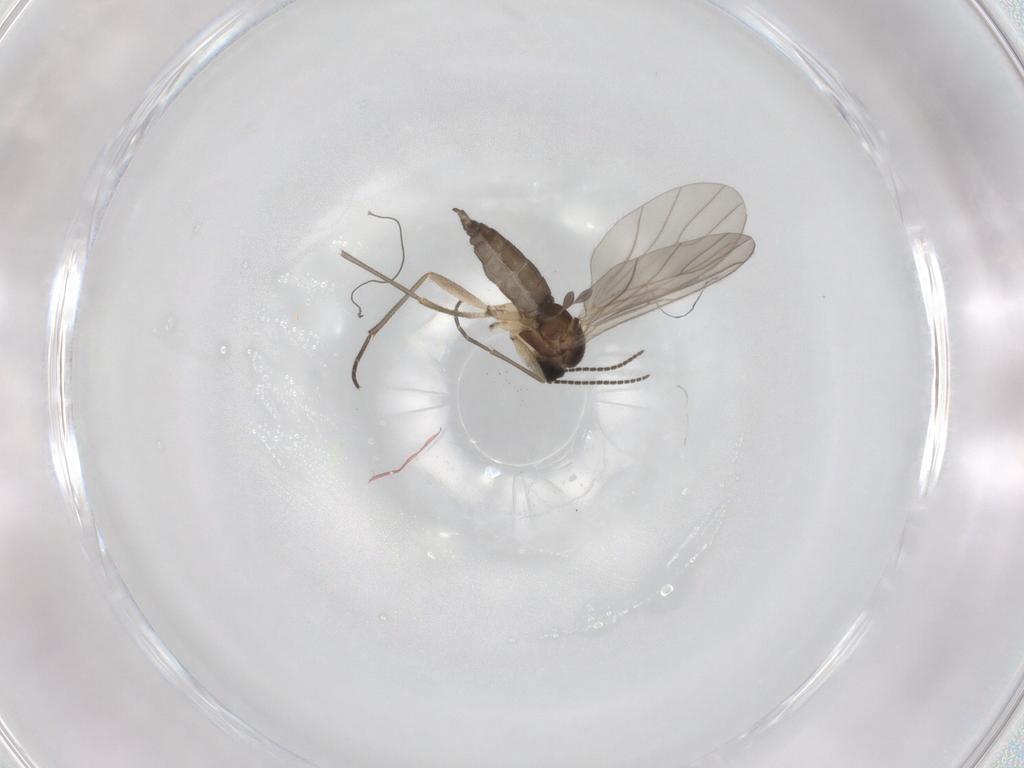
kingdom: Animalia
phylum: Arthropoda
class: Insecta
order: Diptera
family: Sciaridae
